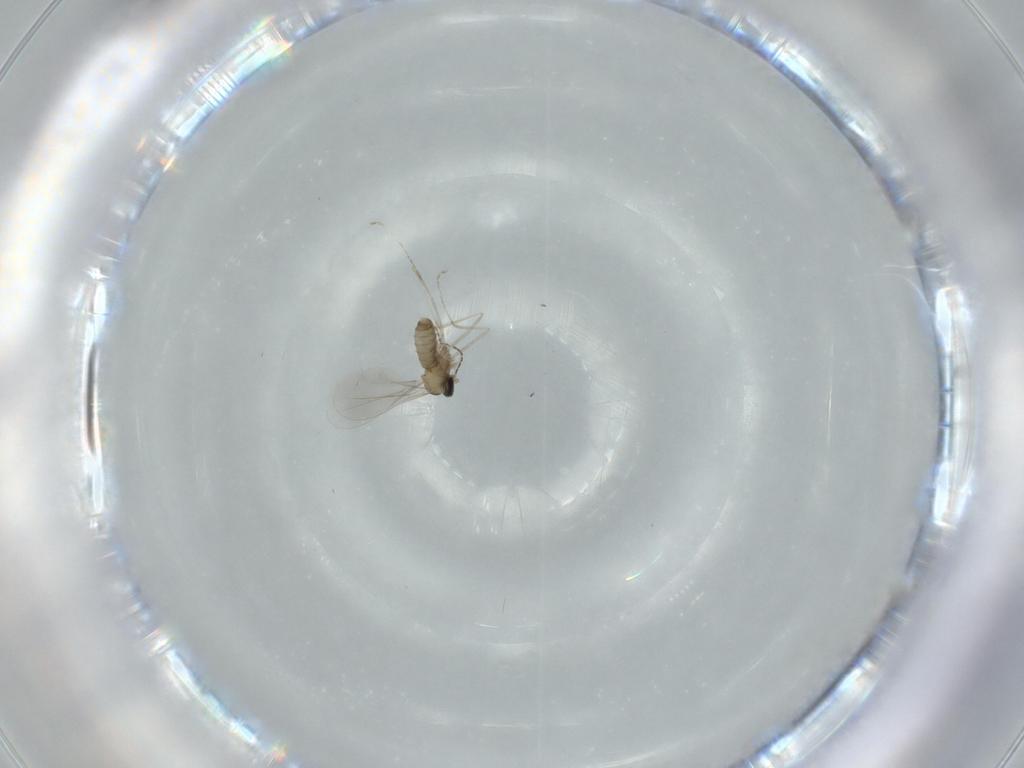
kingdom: Animalia
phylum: Arthropoda
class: Insecta
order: Diptera
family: Cecidomyiidae
